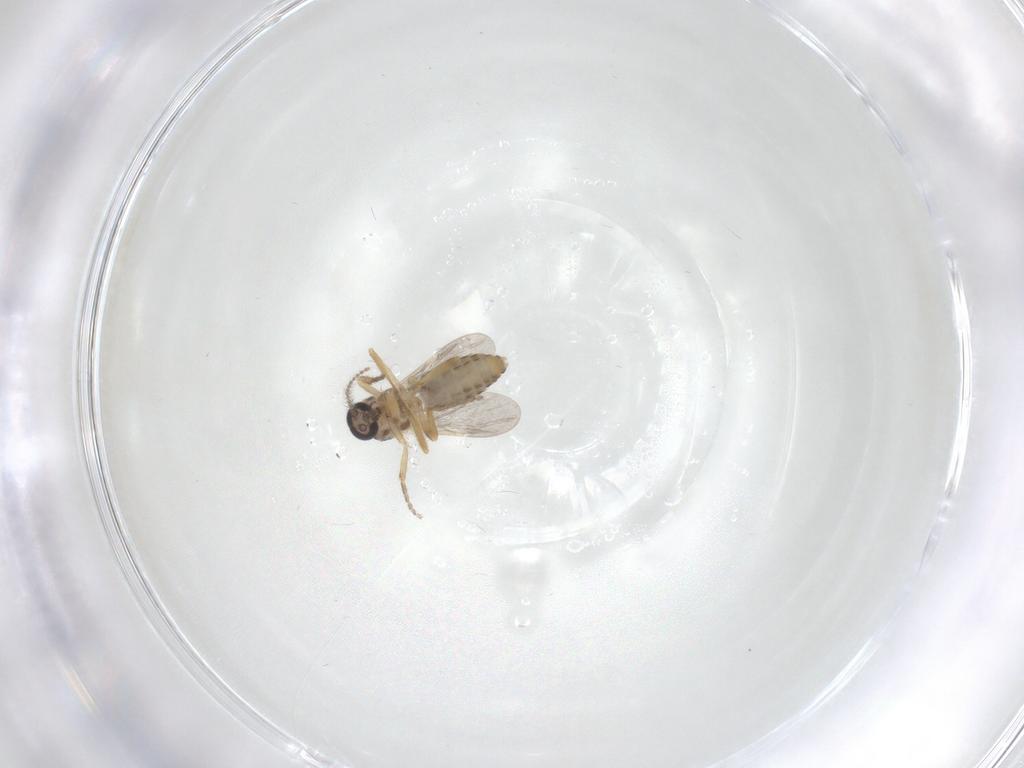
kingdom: Animalia
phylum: Arthropoda
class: Insecta
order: Diptera
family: Ceratopogonidae
